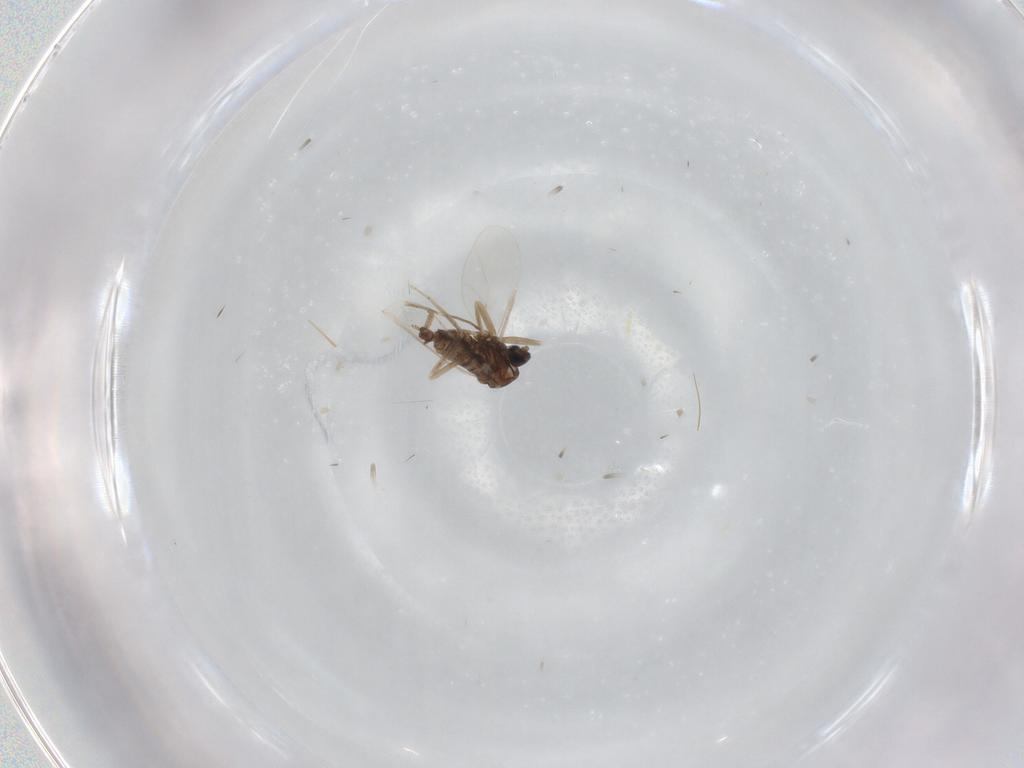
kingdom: Animalia
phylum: Arthropoda
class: Insecta
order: Diptera
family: Cecidomyiidae
